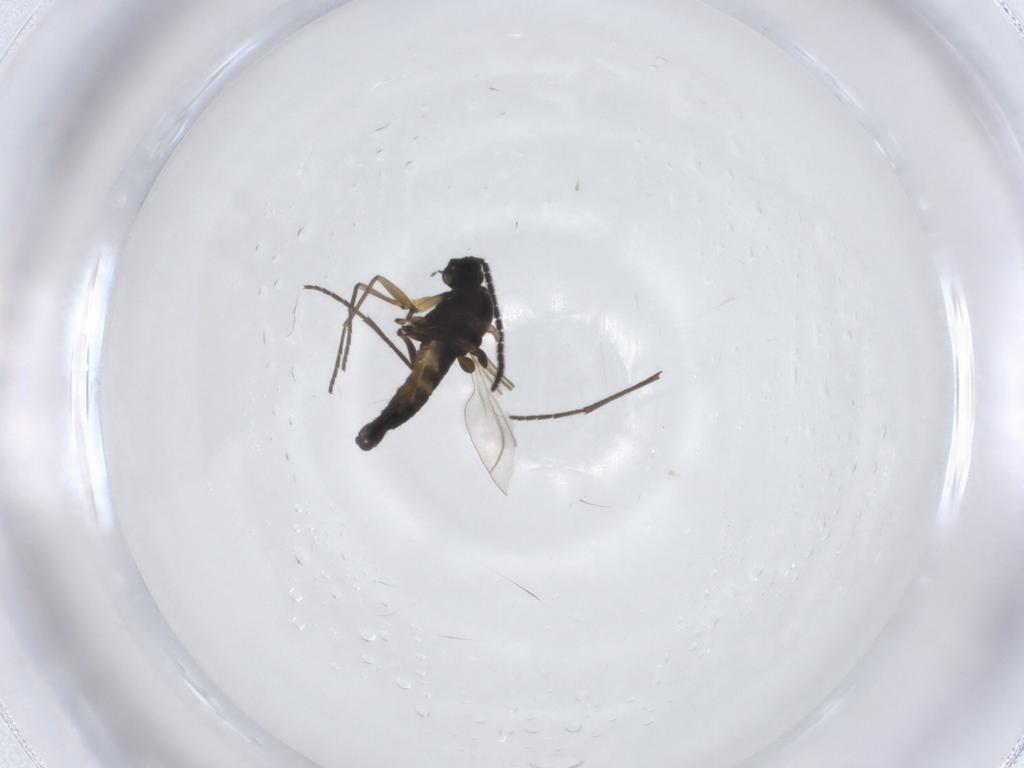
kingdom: Animalia
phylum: Arthropoda
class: Insecta
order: Diptera
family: Sciaridae
